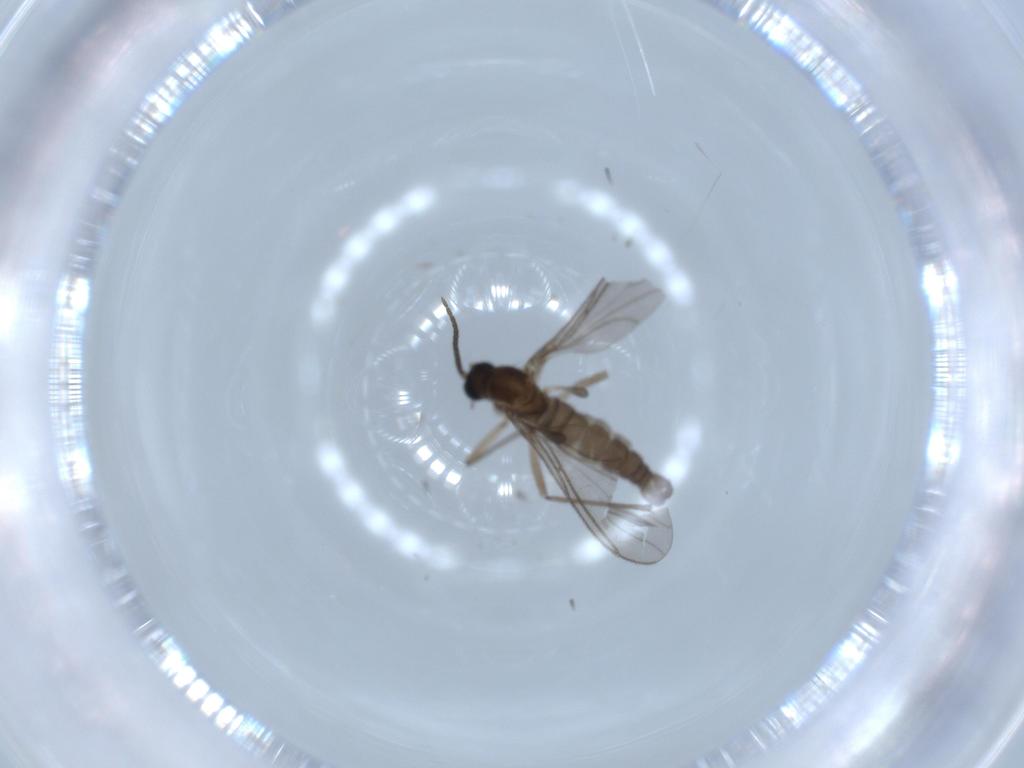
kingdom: Animalia
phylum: Arthropoda
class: Insecta
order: Diptera
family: Sciaridae
